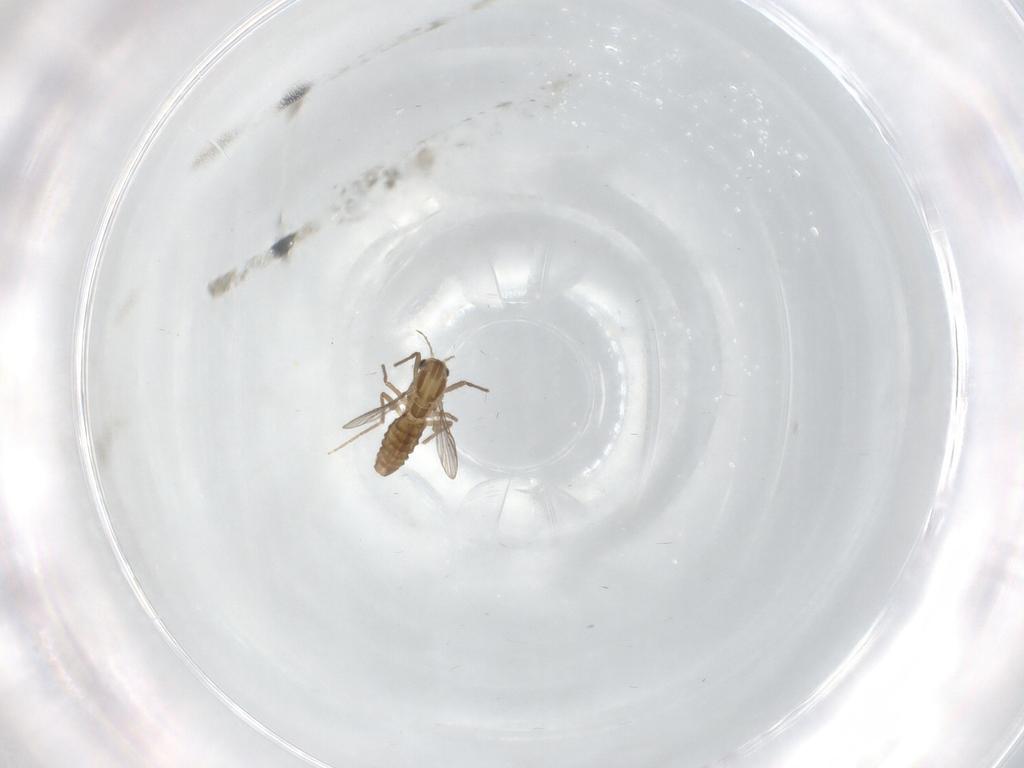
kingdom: Animalia
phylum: Arthropoda
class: Insecta
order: Diptera
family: Chironomidae
